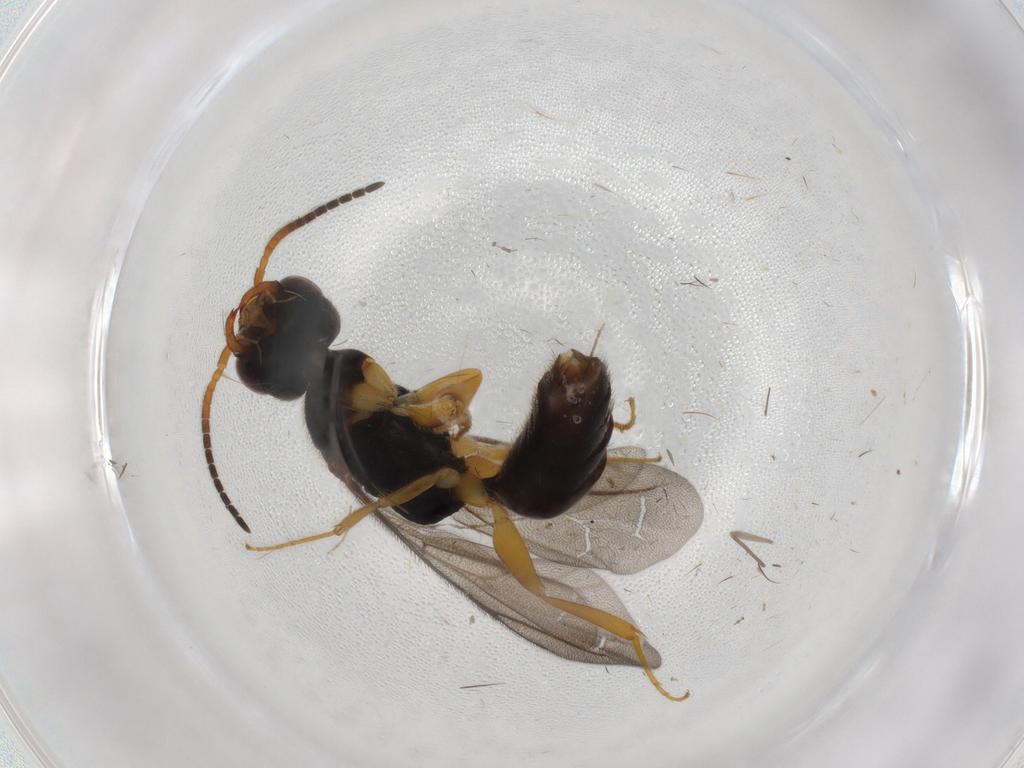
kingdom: Animalia
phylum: Arthropoda
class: Insecta
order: Hymenoptera
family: Bethylidae
